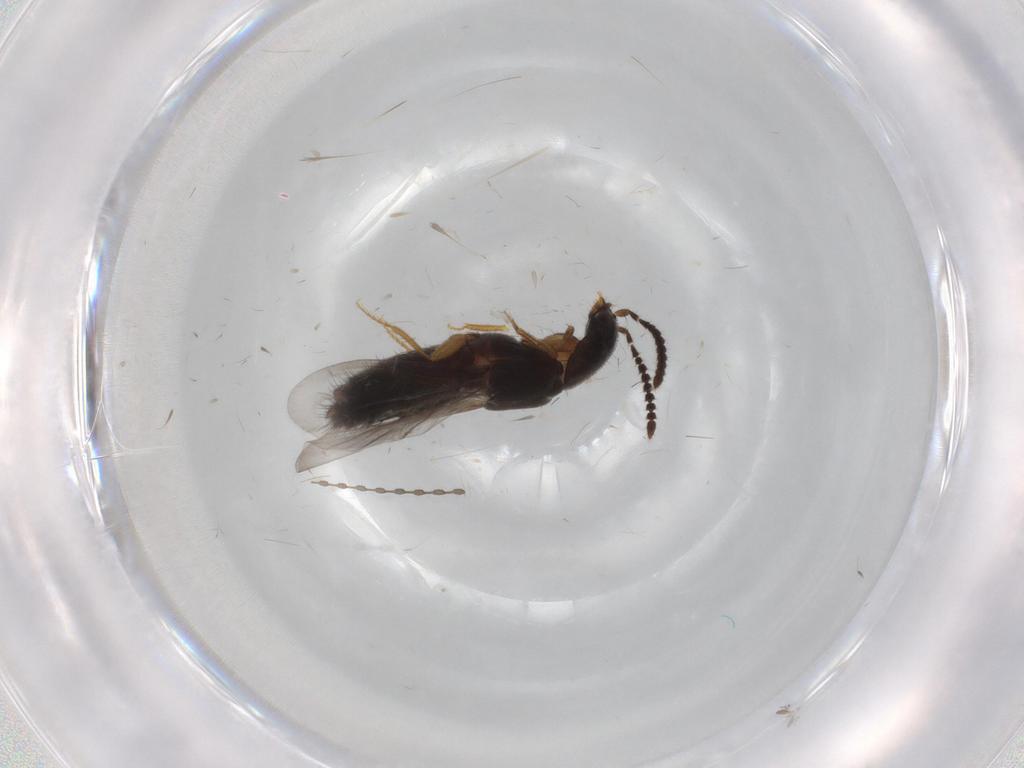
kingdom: Animalia
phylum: Arthropoda
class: Insecta
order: Coleoptera
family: Staphylinidae
